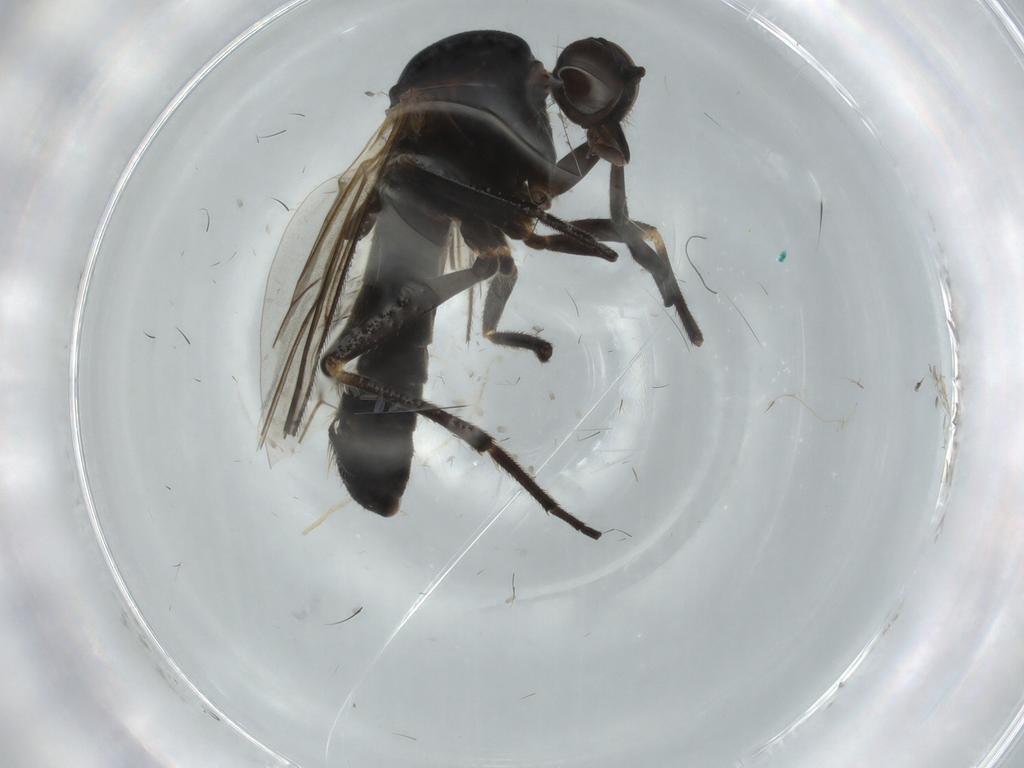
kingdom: Animalia
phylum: Arthropoda
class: Insecta
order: Diptera
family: Empididae
